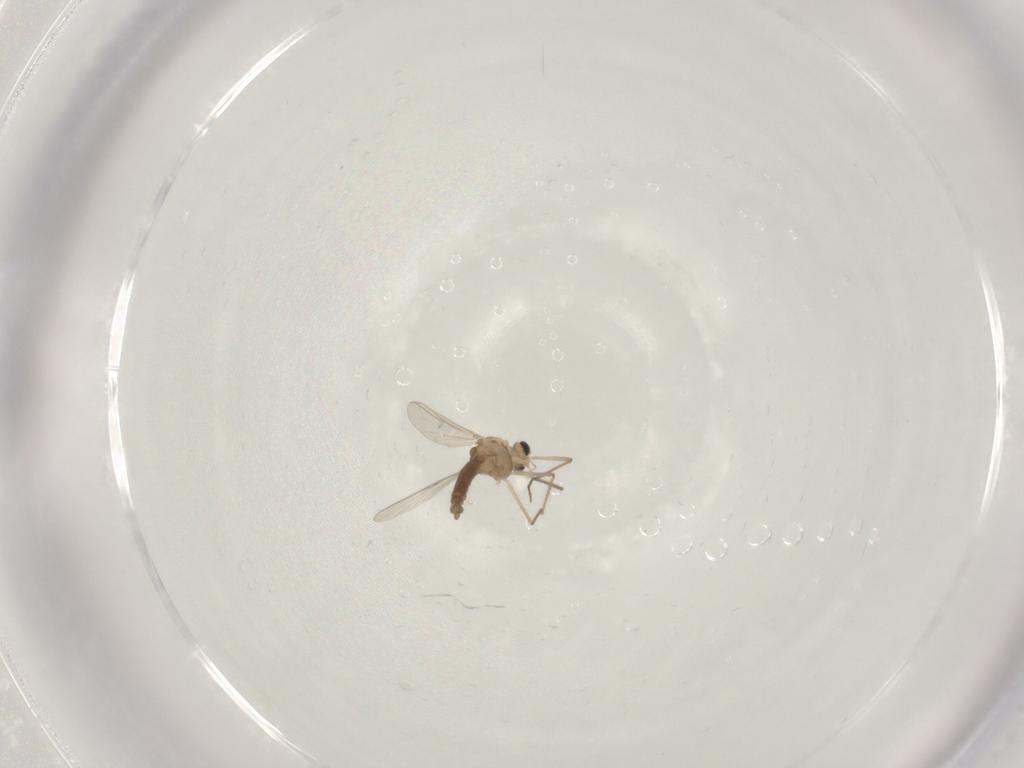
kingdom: Animalia
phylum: Arthropoda
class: Insecta
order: Diptera
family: Chironomidae
